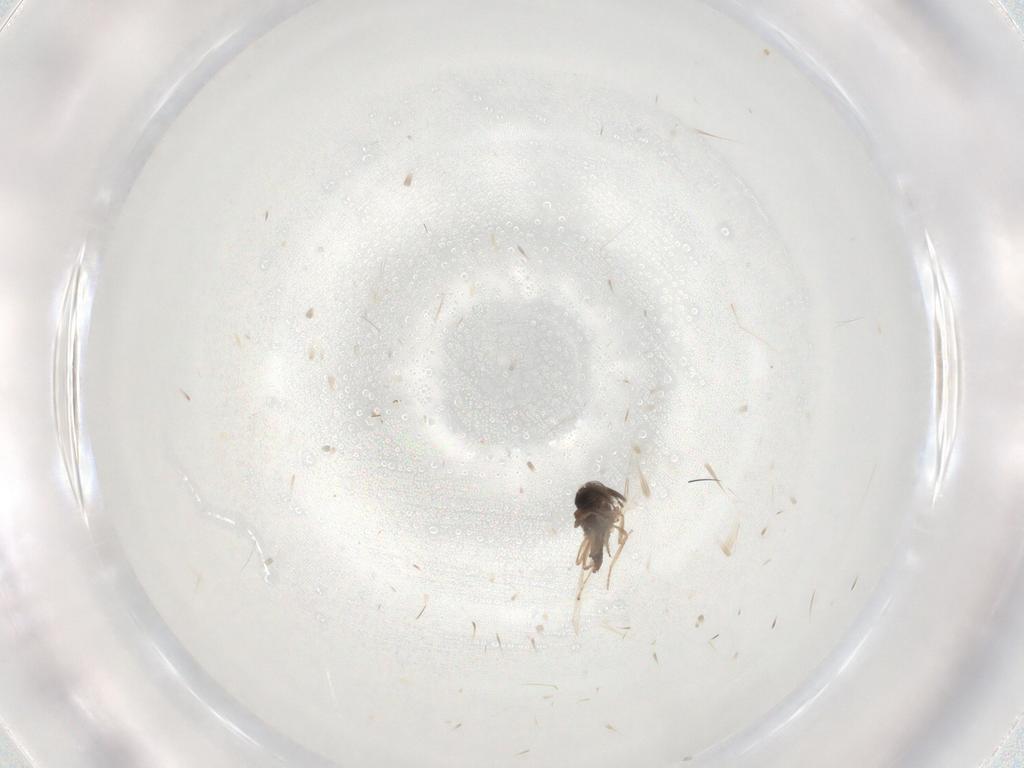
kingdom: Animalia
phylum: Arthropoda
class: Insecta
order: Diptera
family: Ceratopogonidae
